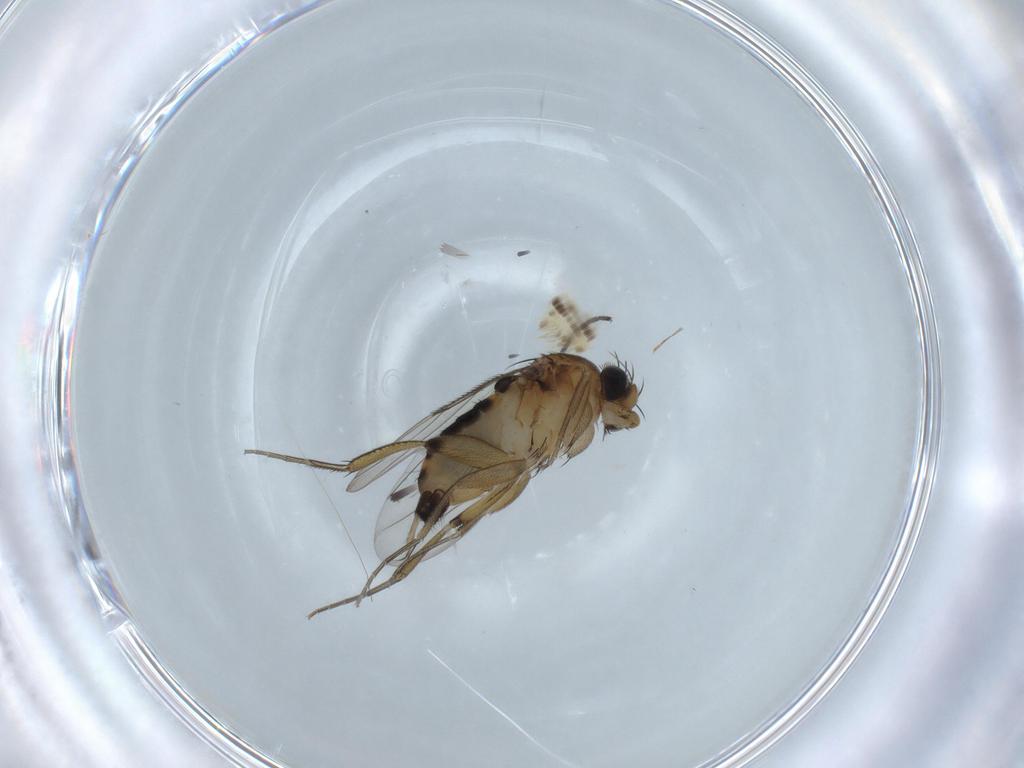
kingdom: Animalia
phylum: Arthropoda
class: Insecta
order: Diptera
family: Phoridae
